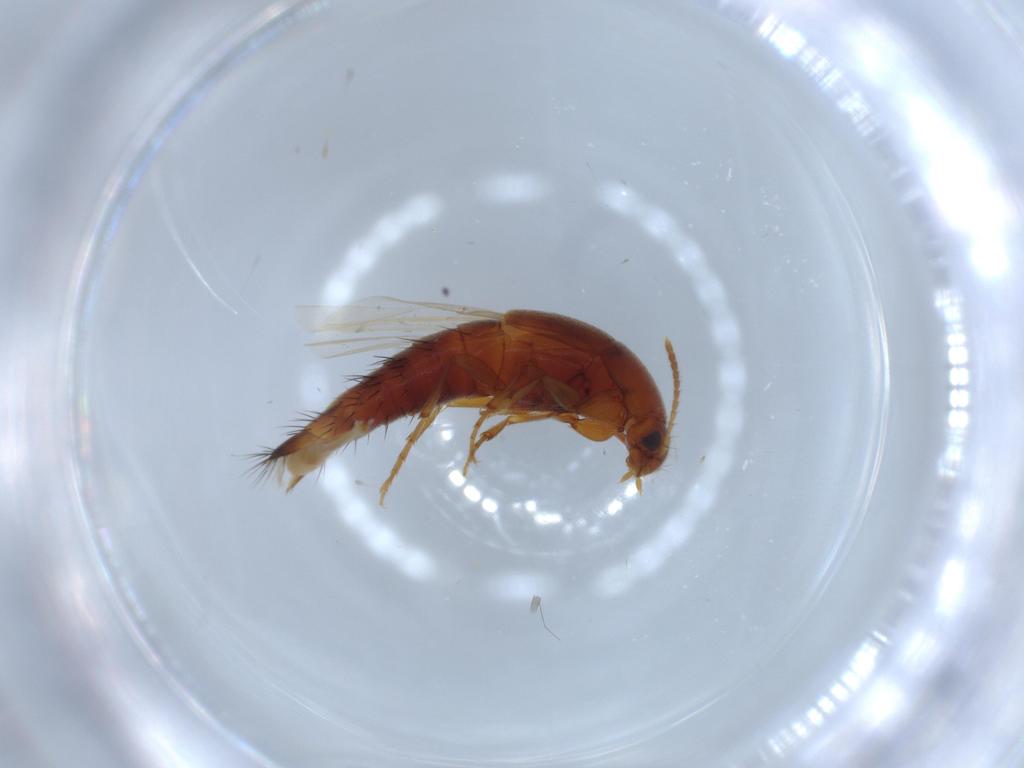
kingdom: Animalia
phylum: Arthropoda
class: Insecta
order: Coleoptera
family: Staphylinidae
